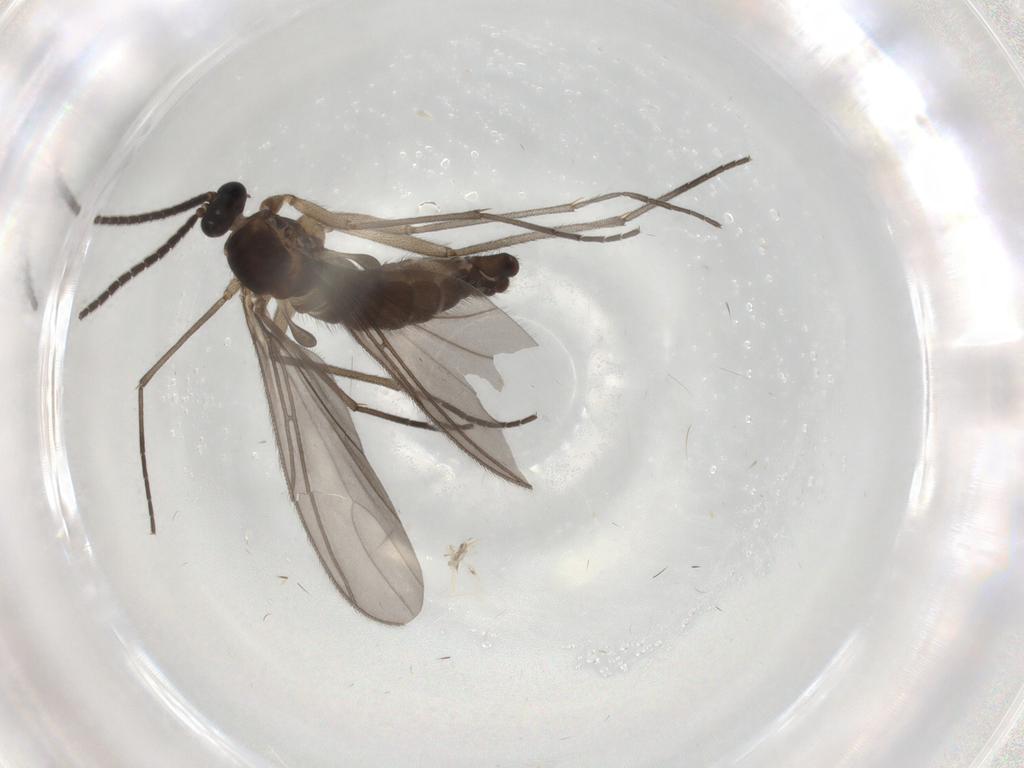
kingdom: Animalia
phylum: Arthropoda
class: Insecta
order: Diptera
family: Sciaridae
